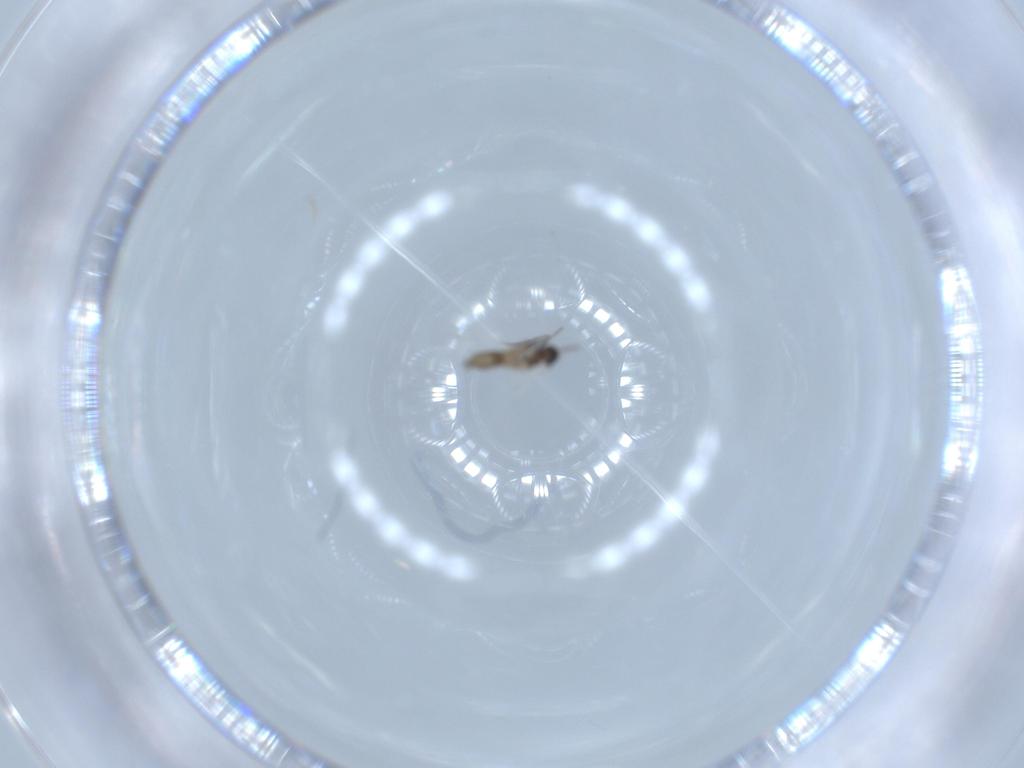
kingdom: Animalia
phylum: Arthropoda
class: Insecta
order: Diptera
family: Cecidomyiidae
